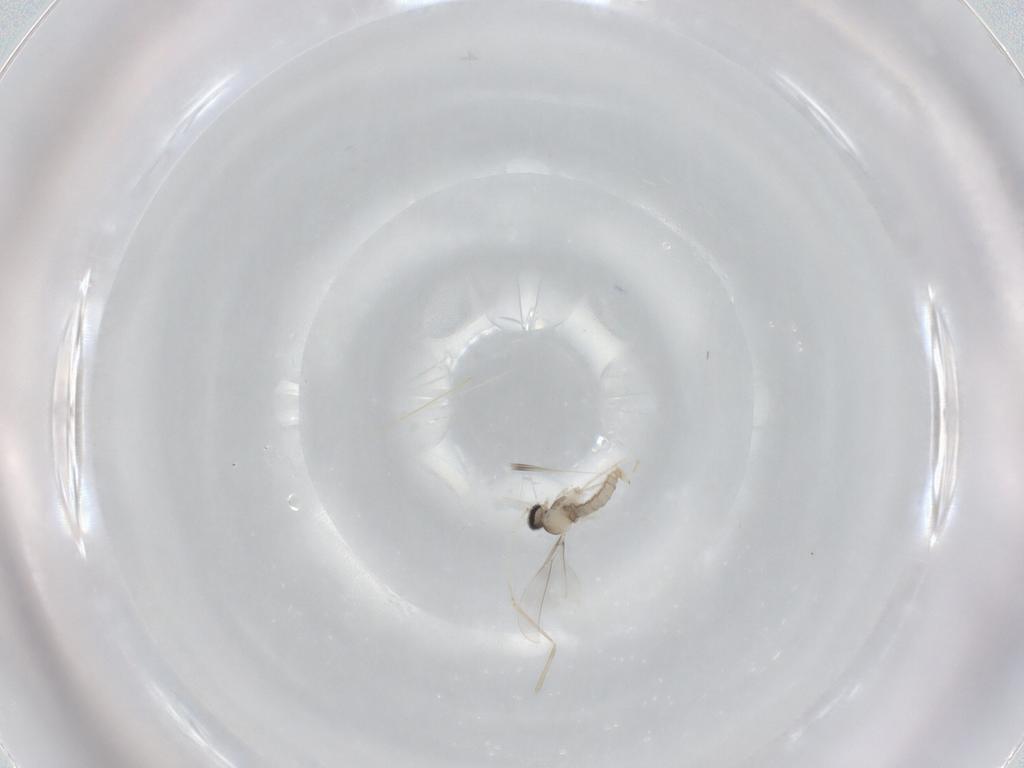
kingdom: Animalia
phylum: Arthropoda
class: Insecta
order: Diptera
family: Cecidomyiidae
